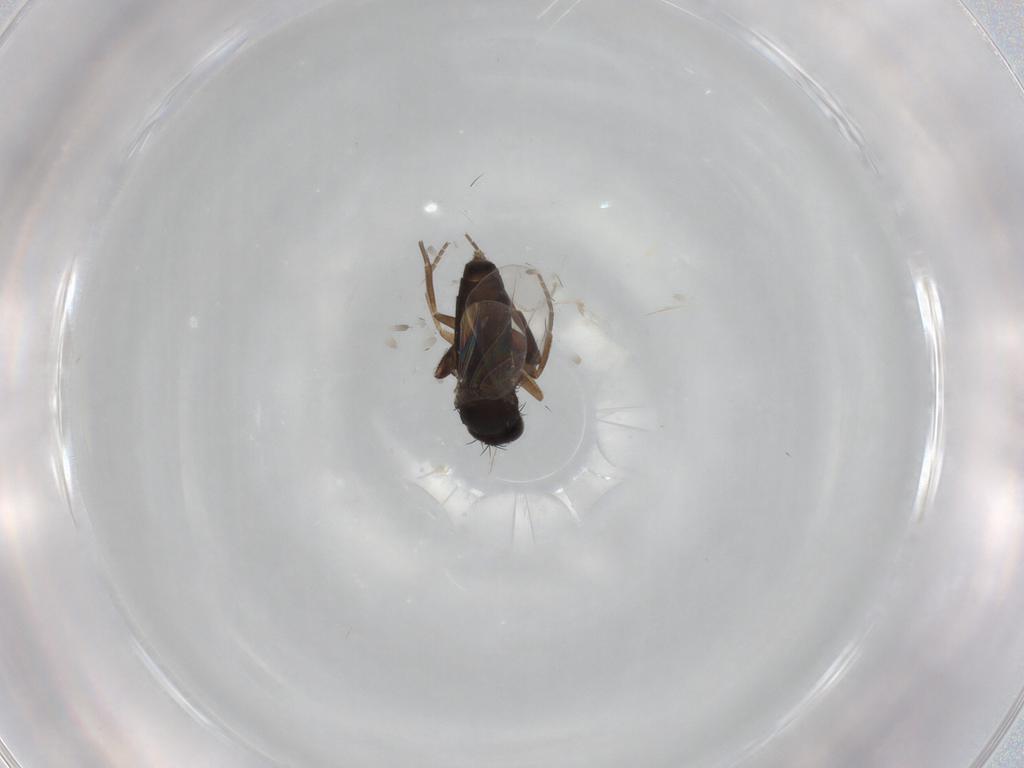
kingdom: Animalia
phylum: Arthropoda
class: Insecta
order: Diptera
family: Phoridae
